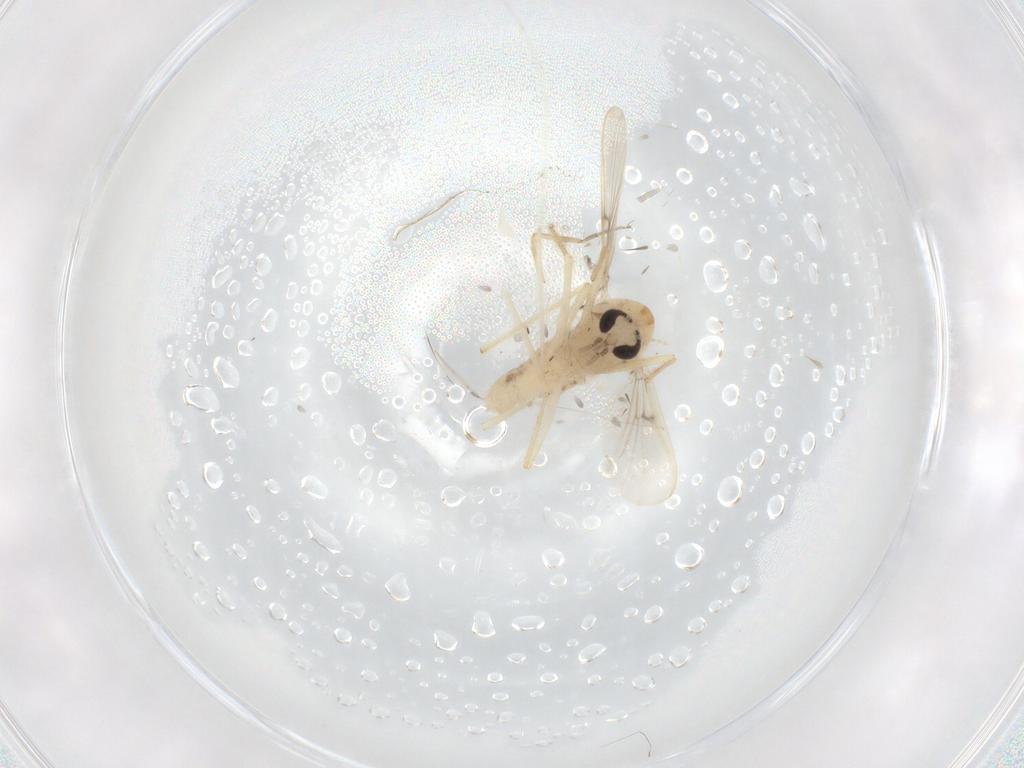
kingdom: Animalia
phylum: Arthropoda
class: Insecta
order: Diptera
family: Chironomidae
